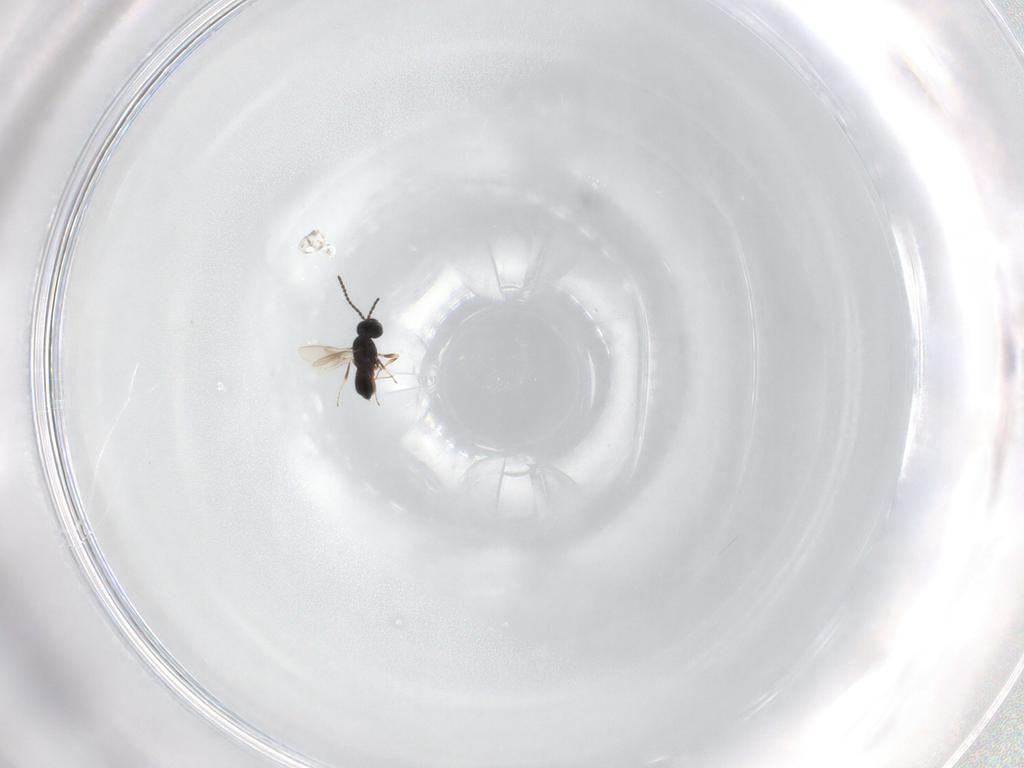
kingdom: Animalia
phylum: Arthropoda
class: Insecta
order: Hymenoptera
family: Scelionidae
